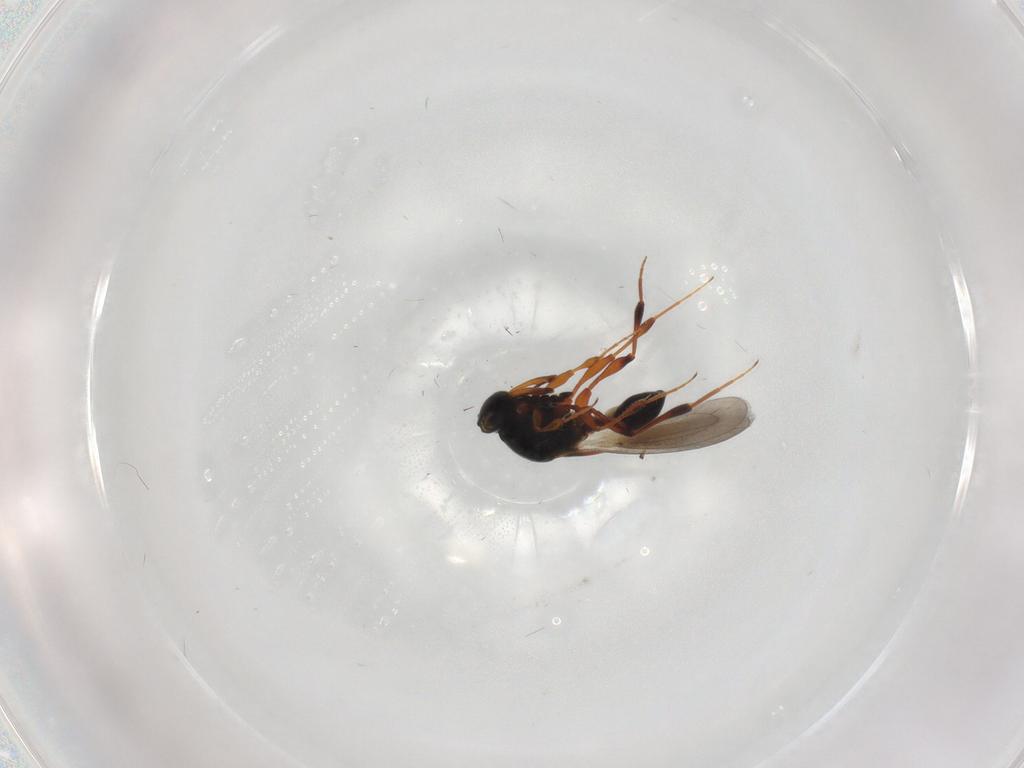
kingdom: Animalia
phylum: Arthropoda
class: Insecta
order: Hymenoptera
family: Platygastridae
